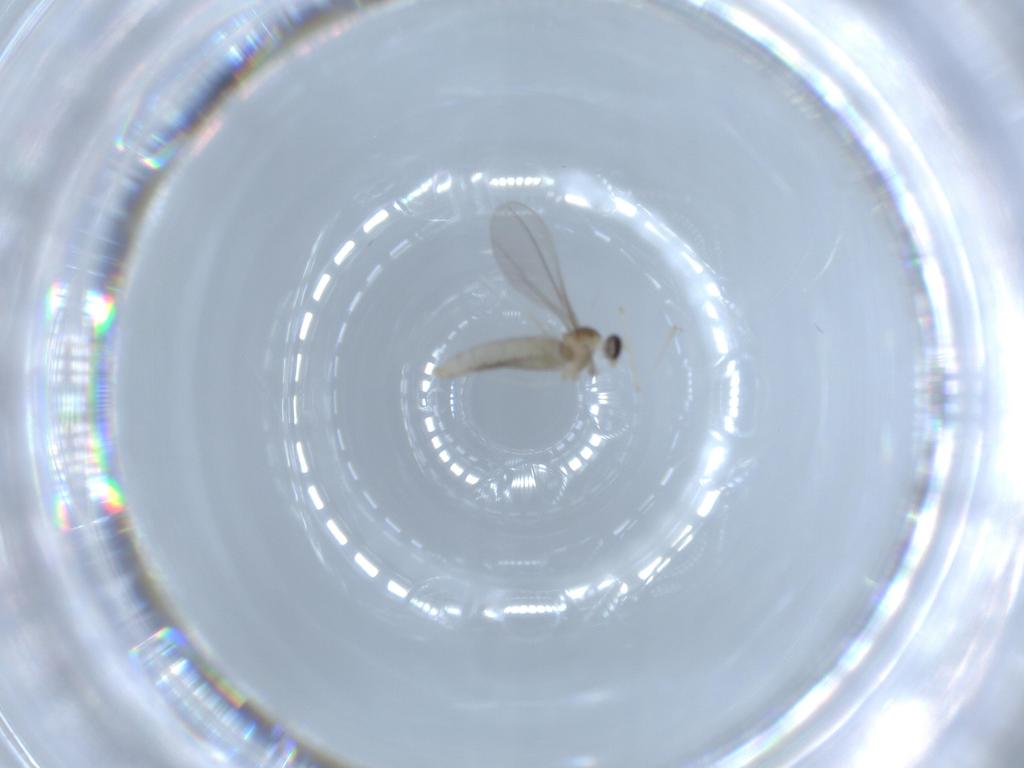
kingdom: Animalia
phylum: Arthropoda
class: Insecta
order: Diptera
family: Cecidomyiidae
